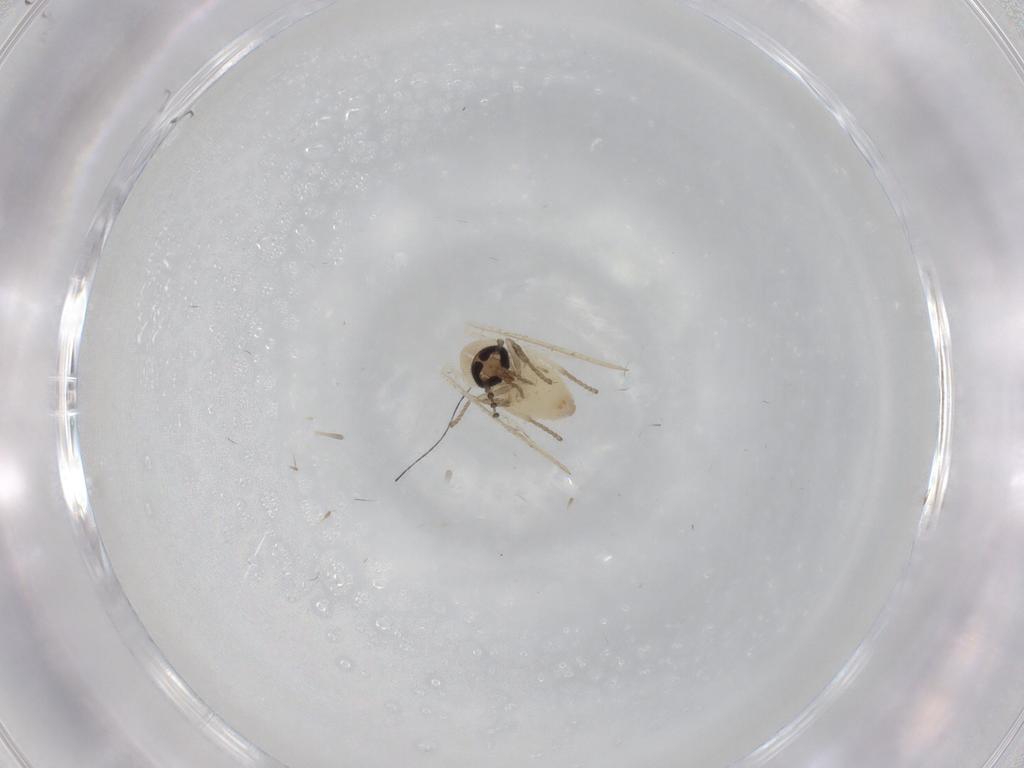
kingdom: Animalia
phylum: Arthropoda
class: Insecta
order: Diptera
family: Psychodidae
